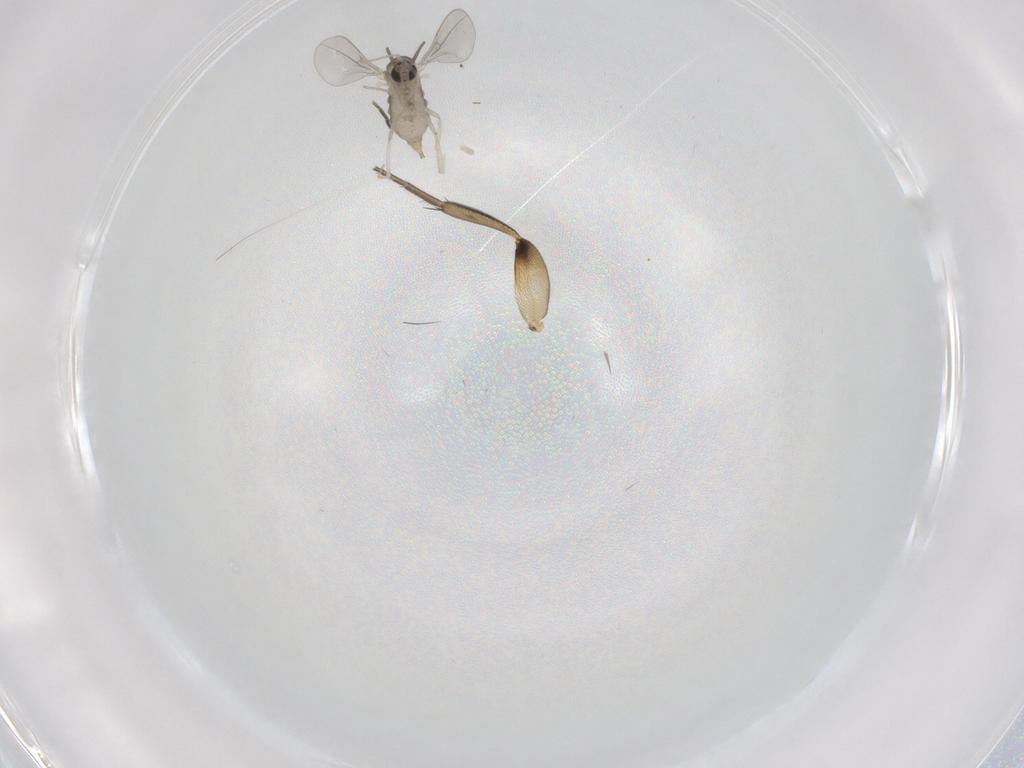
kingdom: Animalia
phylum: Arthropoda
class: Insecta
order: Diptera
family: Cecidomyiidae
